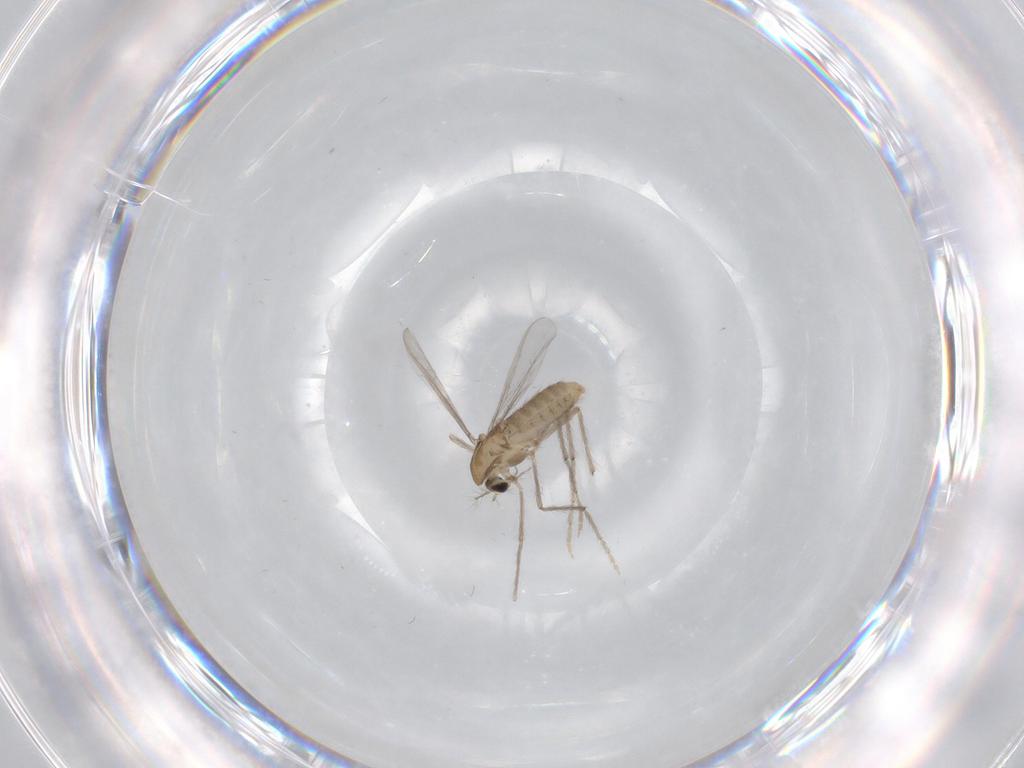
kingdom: Animalia
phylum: Arthropoda
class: Insecta
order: Diptera
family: Chironomidae
